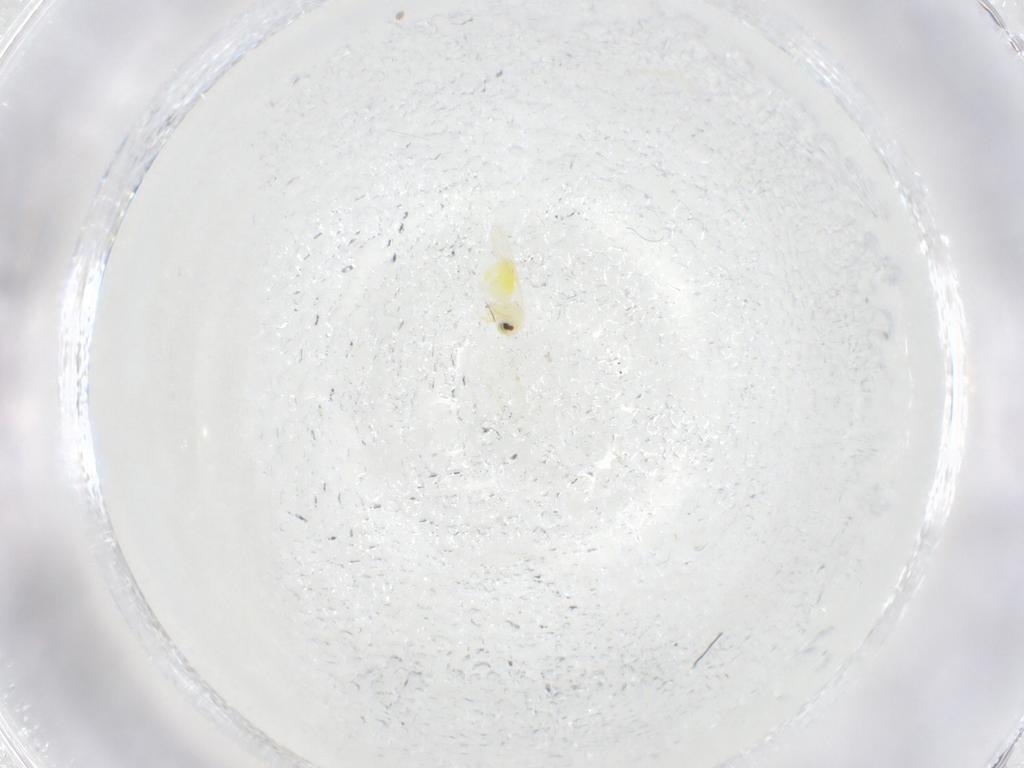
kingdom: Animalia
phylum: Arthropoda
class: Insecta
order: Hemiptera
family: Aleyrodidae
